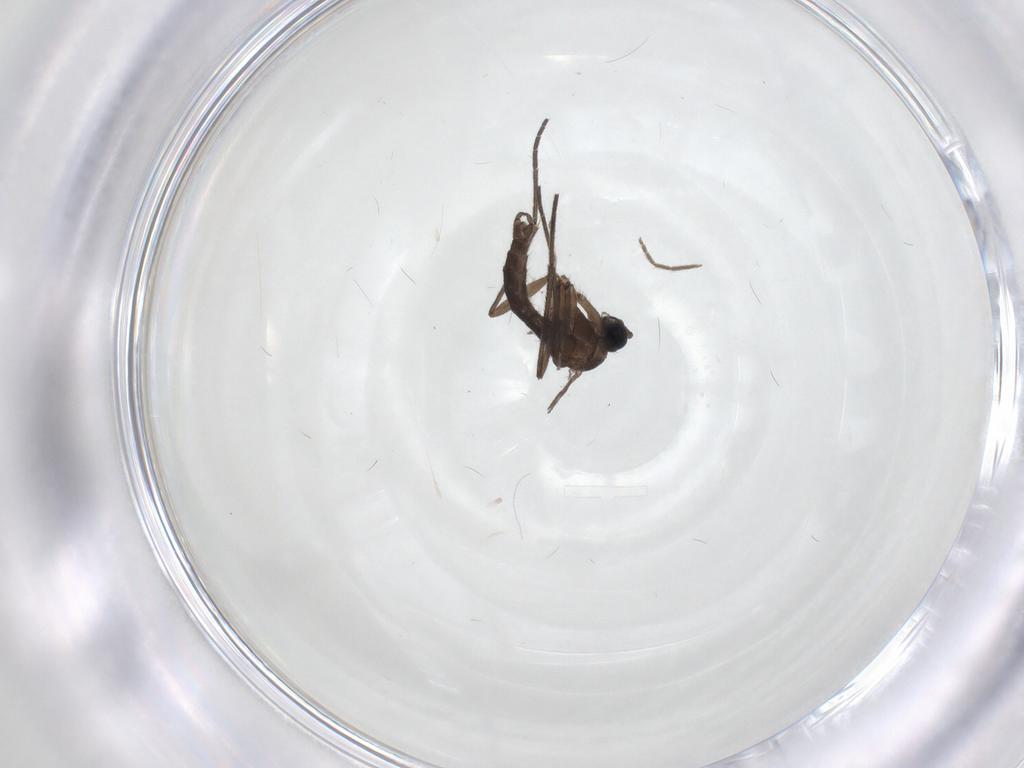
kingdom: Animalia
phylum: Arthropoda
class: Insecta
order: Diptera
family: Sciaridae
